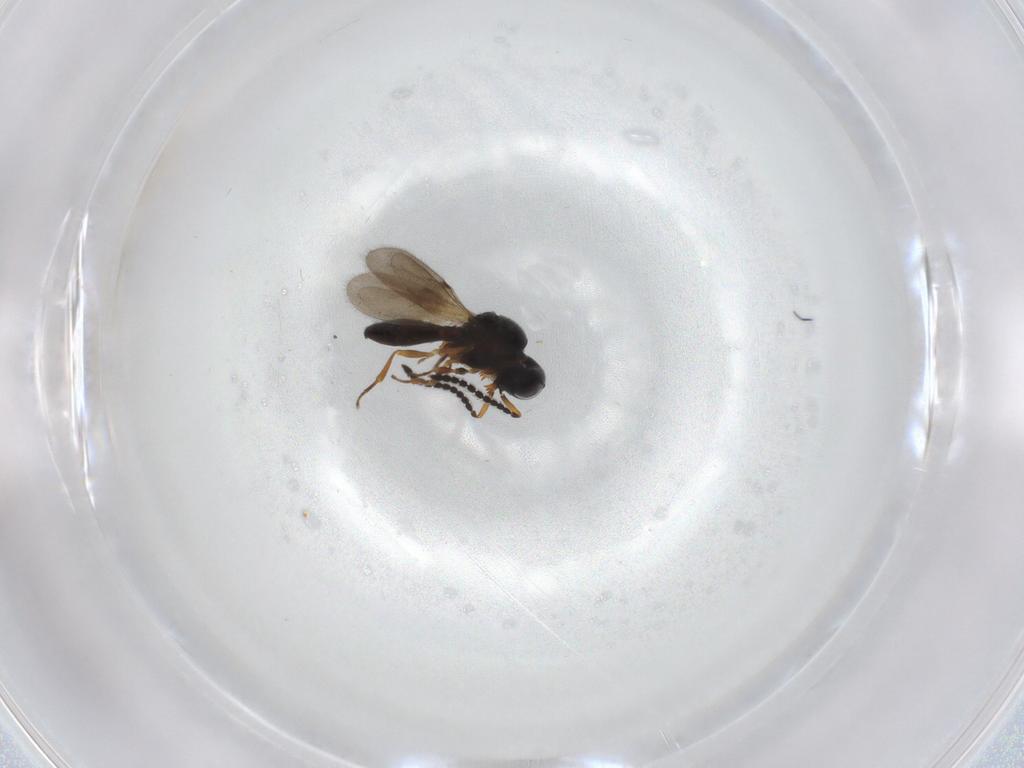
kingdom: Animalia
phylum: Arthropoda
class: Insecta
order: Hymenoptera
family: Scelionidae
